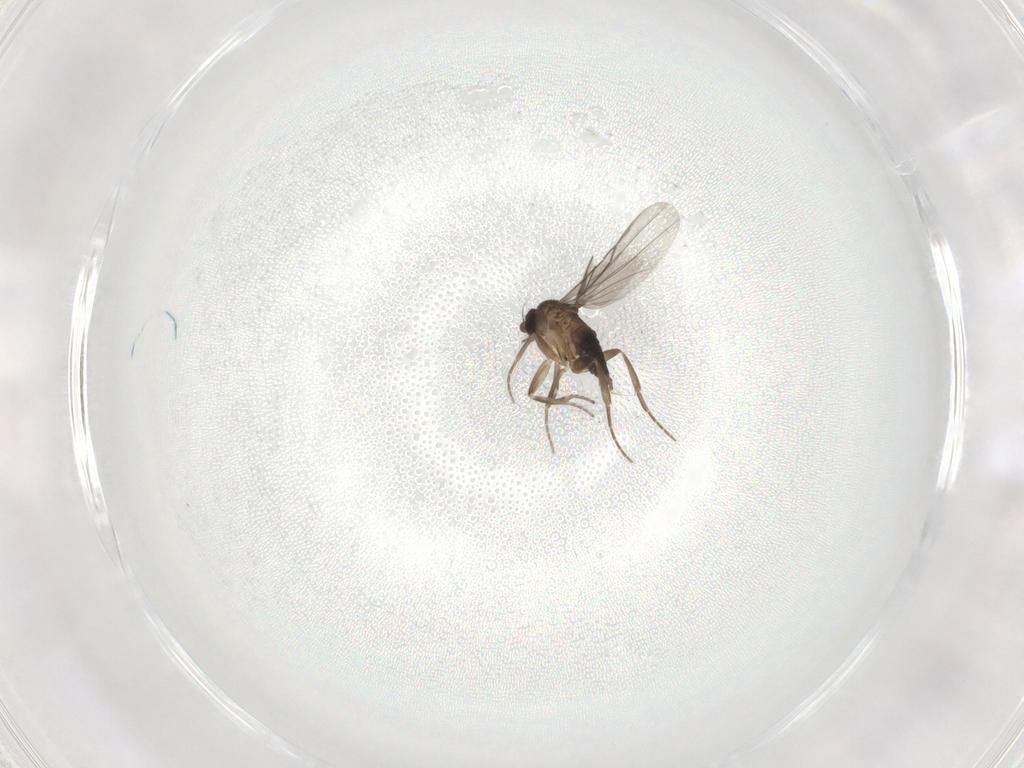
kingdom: Animalia
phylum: Arthropoda
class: Insecta
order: Diptera
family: Phoridae
